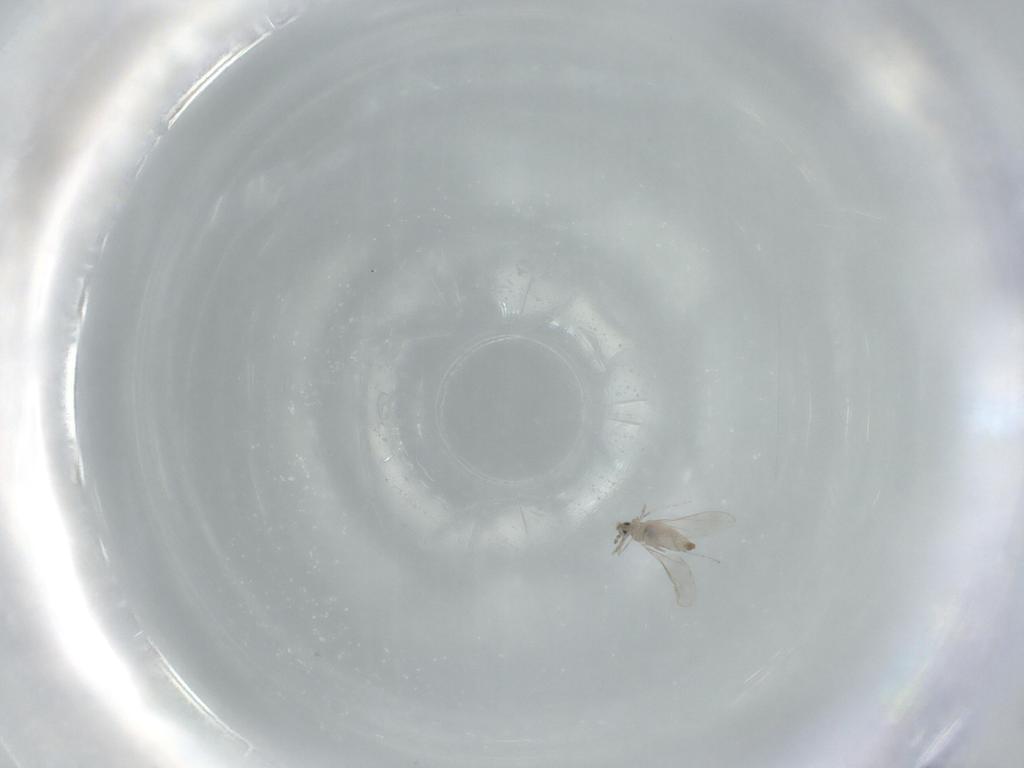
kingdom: Animalia
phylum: Arthropoda
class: Insecta
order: Diptera
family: Cecidomyiidae
